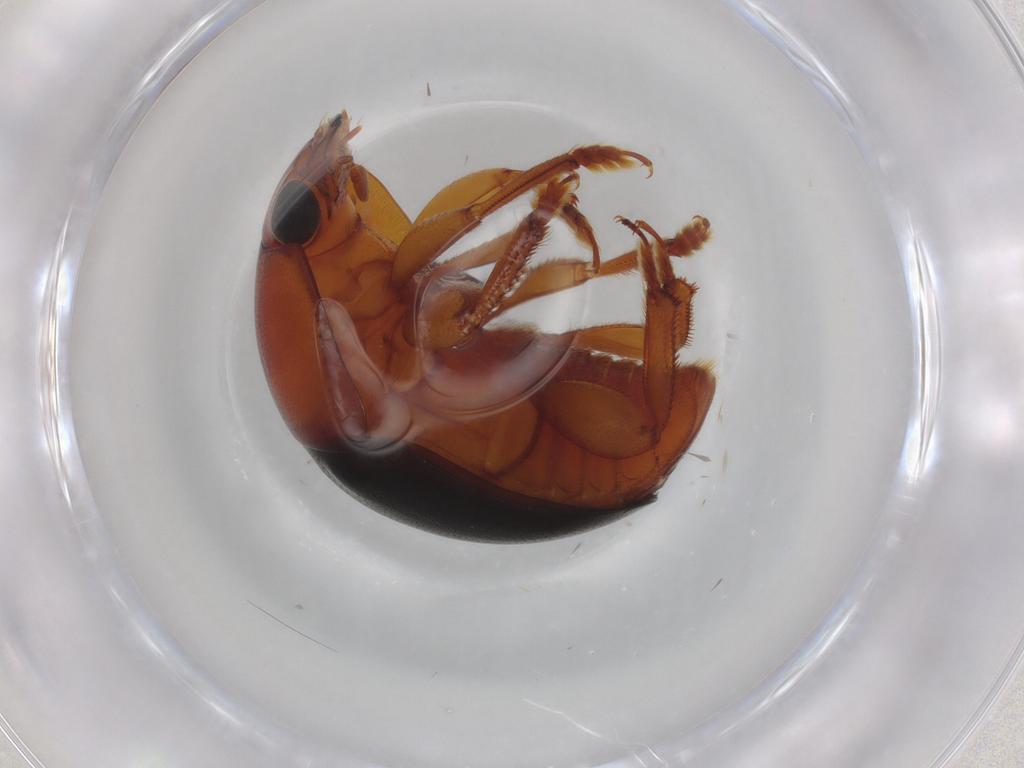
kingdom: Animalia
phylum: Arthropoda
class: Insecta
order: Coleoptera
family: Nitidulidae
